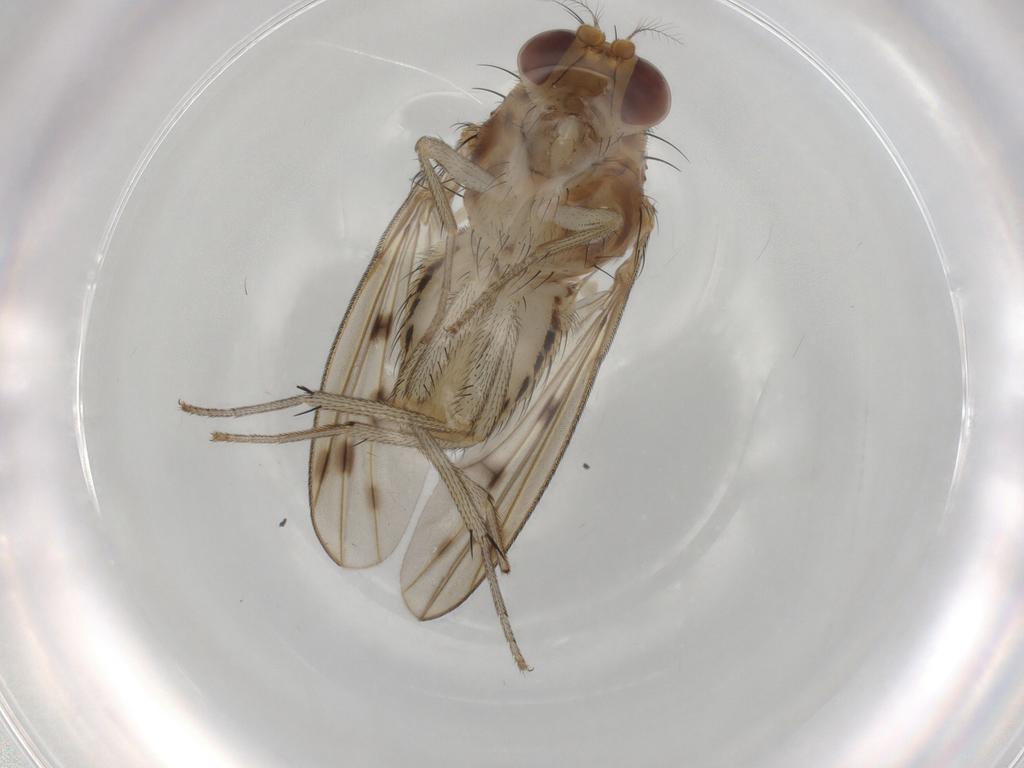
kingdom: Animalia
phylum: Arthropoda
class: Insecta
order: Diptera
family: Ceratopogonidae
